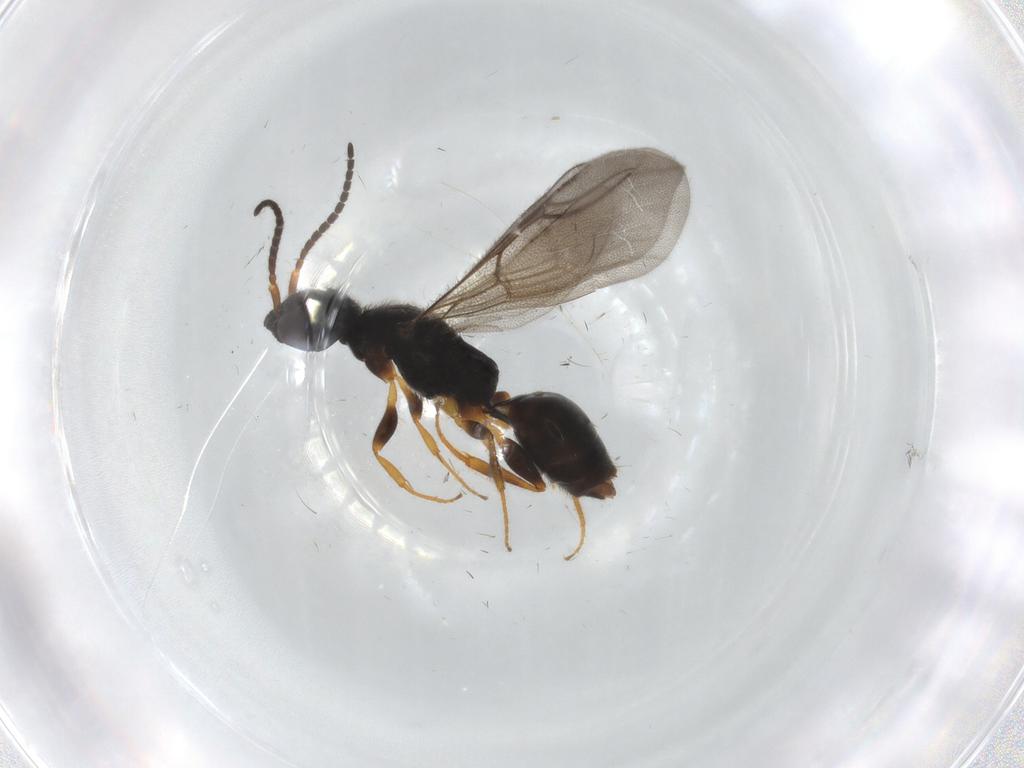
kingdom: Animalia
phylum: Arthropoda
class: Insecta
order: Hymenoptera
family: Bethylidae
